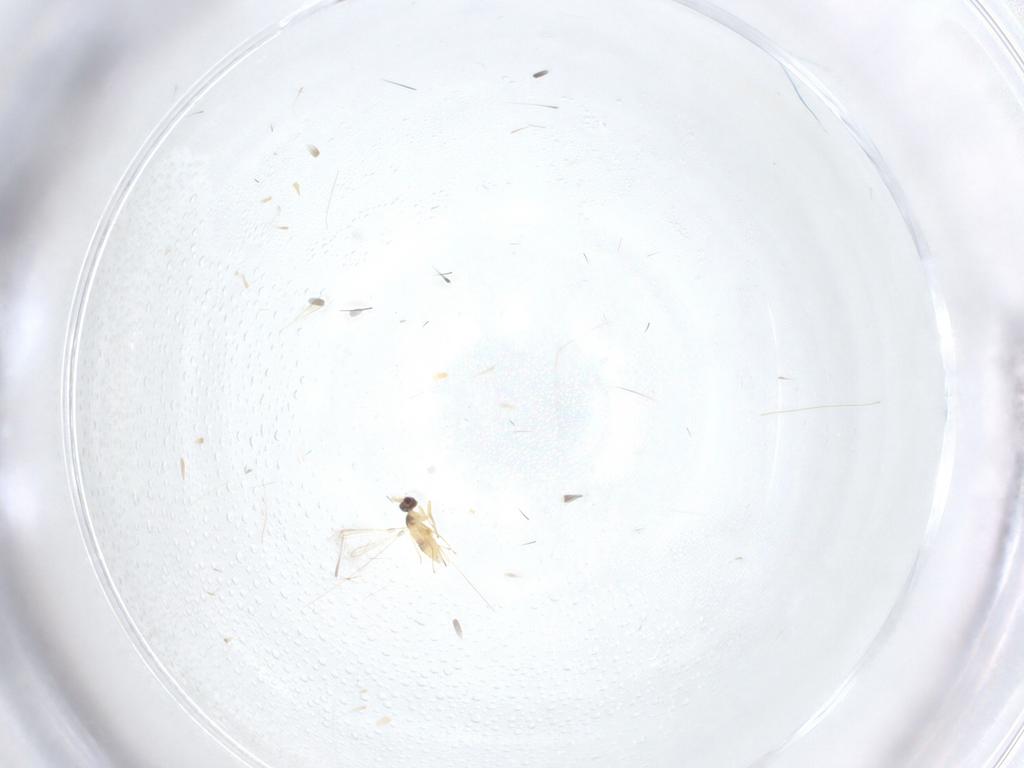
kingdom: Animalia
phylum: Arthropoda
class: Insecta
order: Hymenoptera
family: Mymaridae
